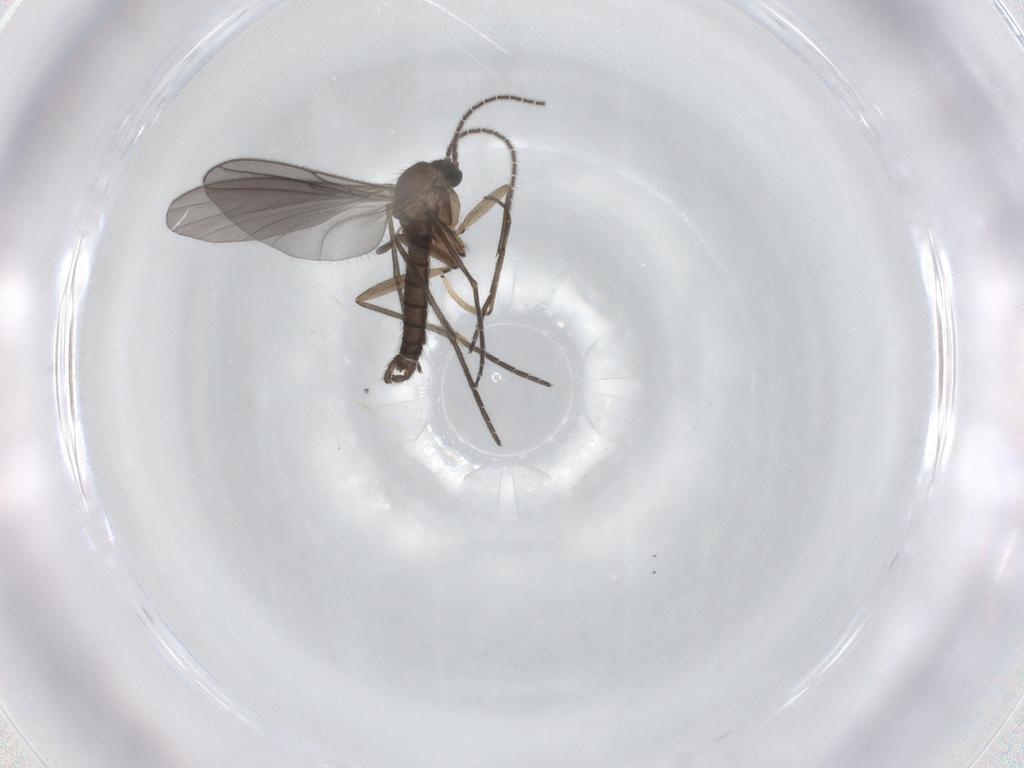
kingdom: Animalia
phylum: Arthropoda
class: Insecta
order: Diptera
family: Sciaridae
